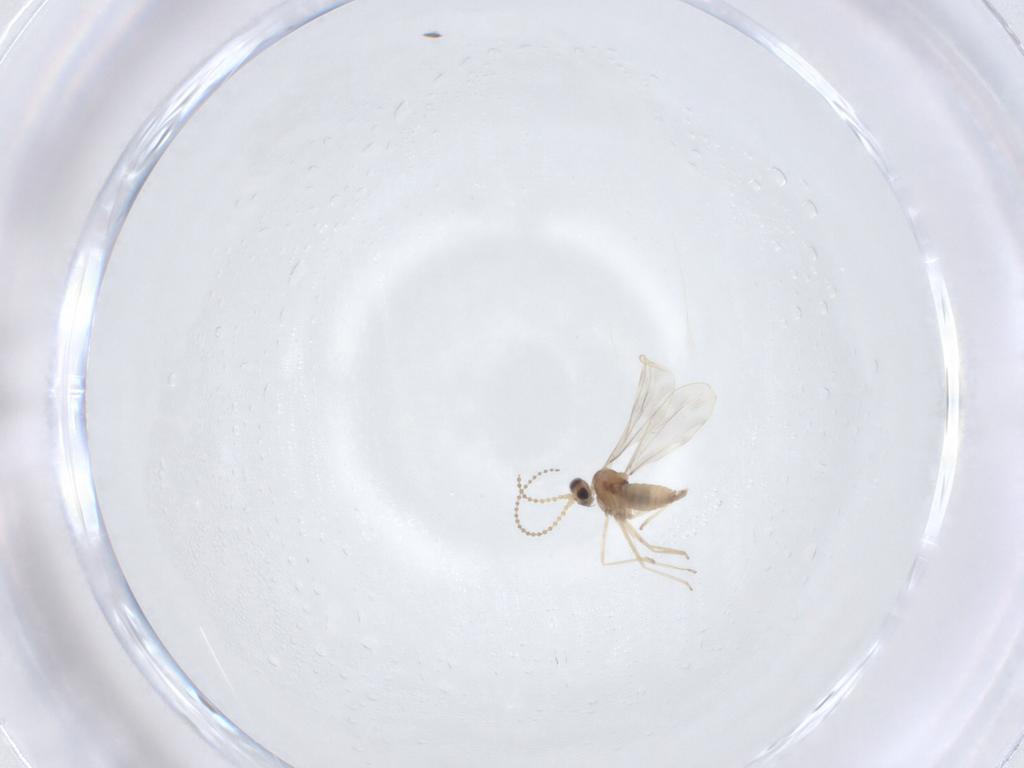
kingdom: Animalia
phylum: Arthropoda
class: Insecta
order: Diptera
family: Cecidomyiidae
